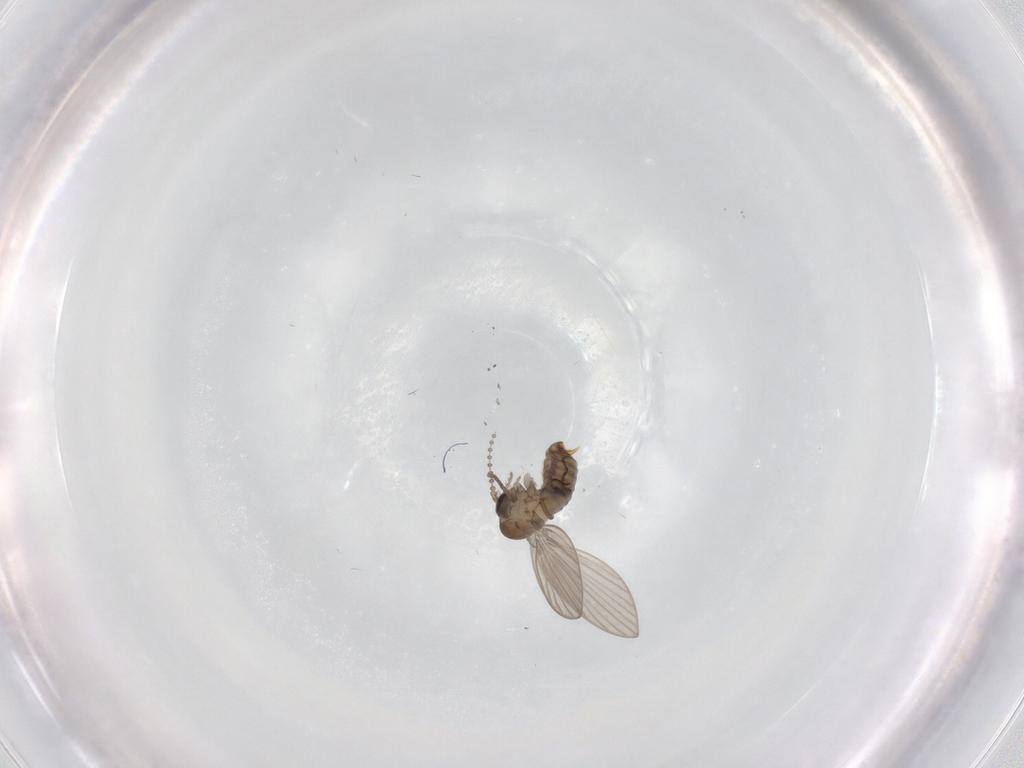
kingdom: Animalia
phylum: Arthropoda
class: Insecta
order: Diptera
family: Psychodidae
